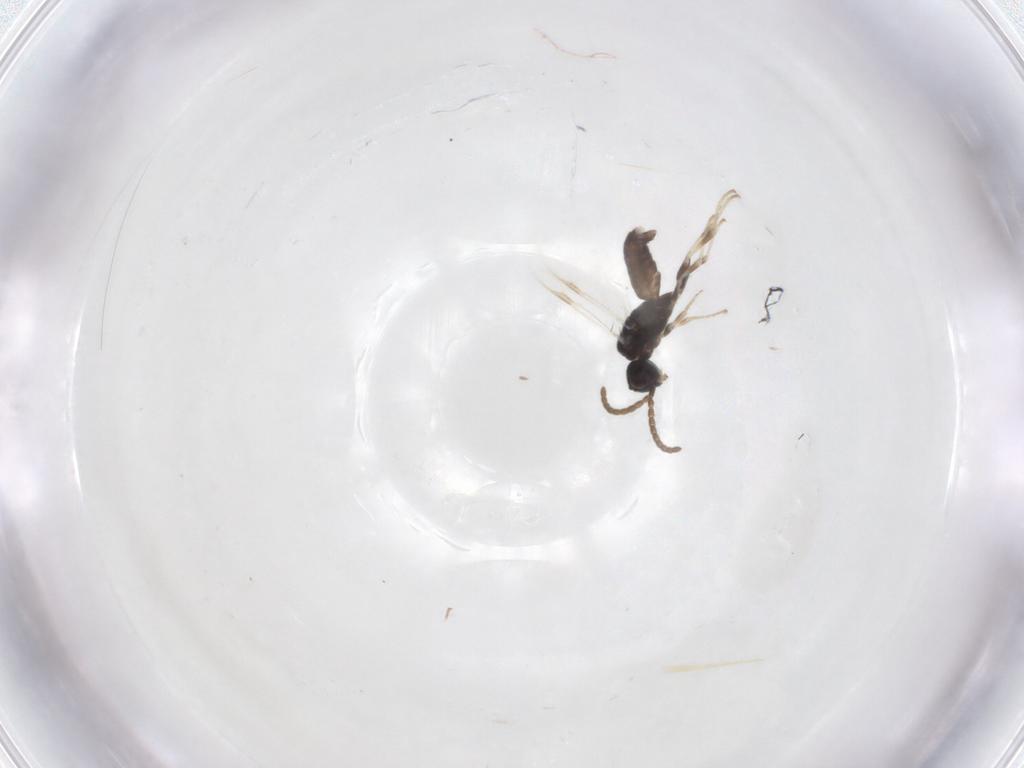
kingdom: Animalia
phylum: Arthropoda
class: Insecta
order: Hymenoptera
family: Dryinidae
